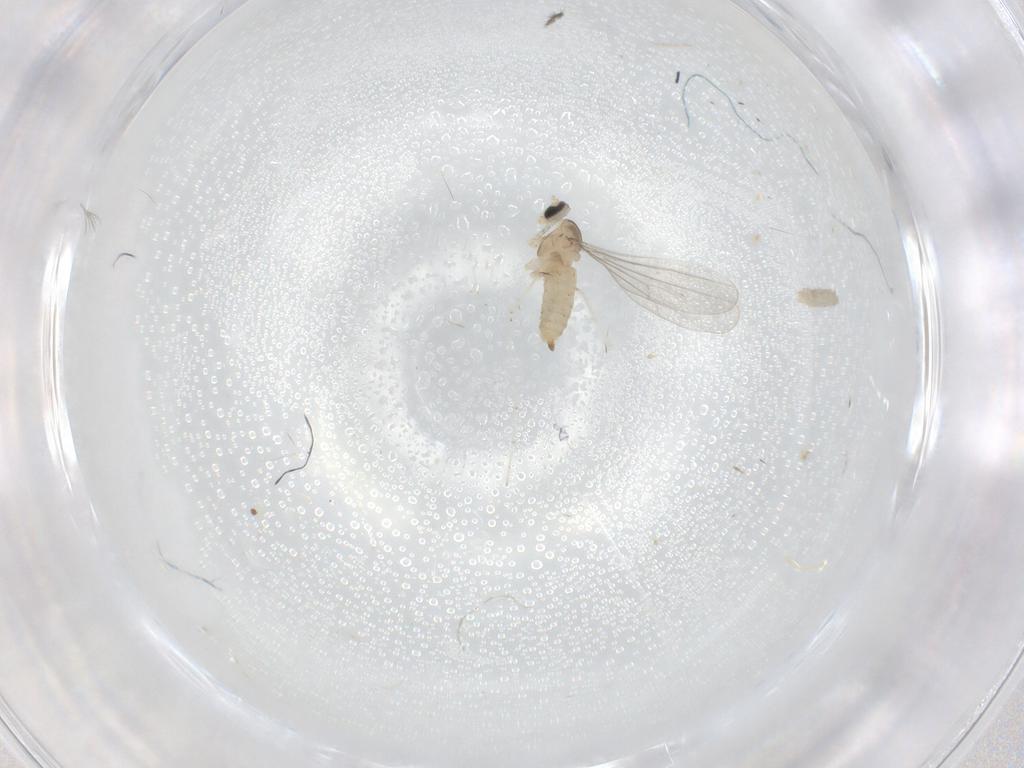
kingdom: Animalia
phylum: Arthropoda
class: Insecta
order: Diptera
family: Cecidomyiidae
